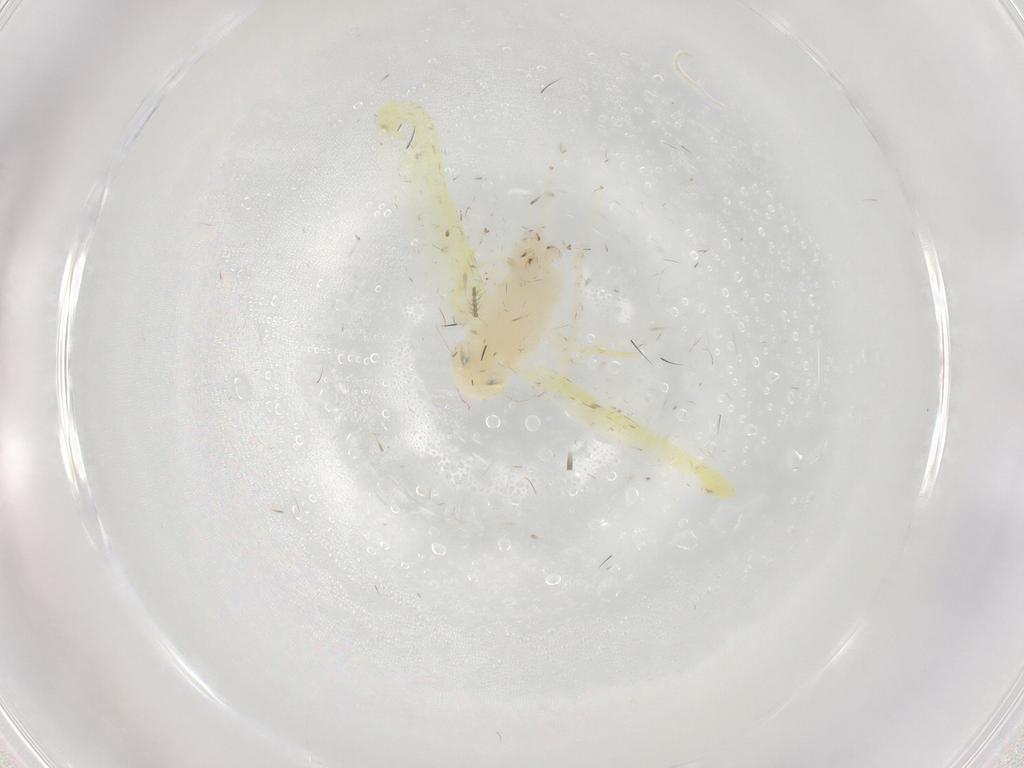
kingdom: Animalia
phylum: Arthropoda
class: Insecta
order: Hemiptera
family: Cicadellidae
